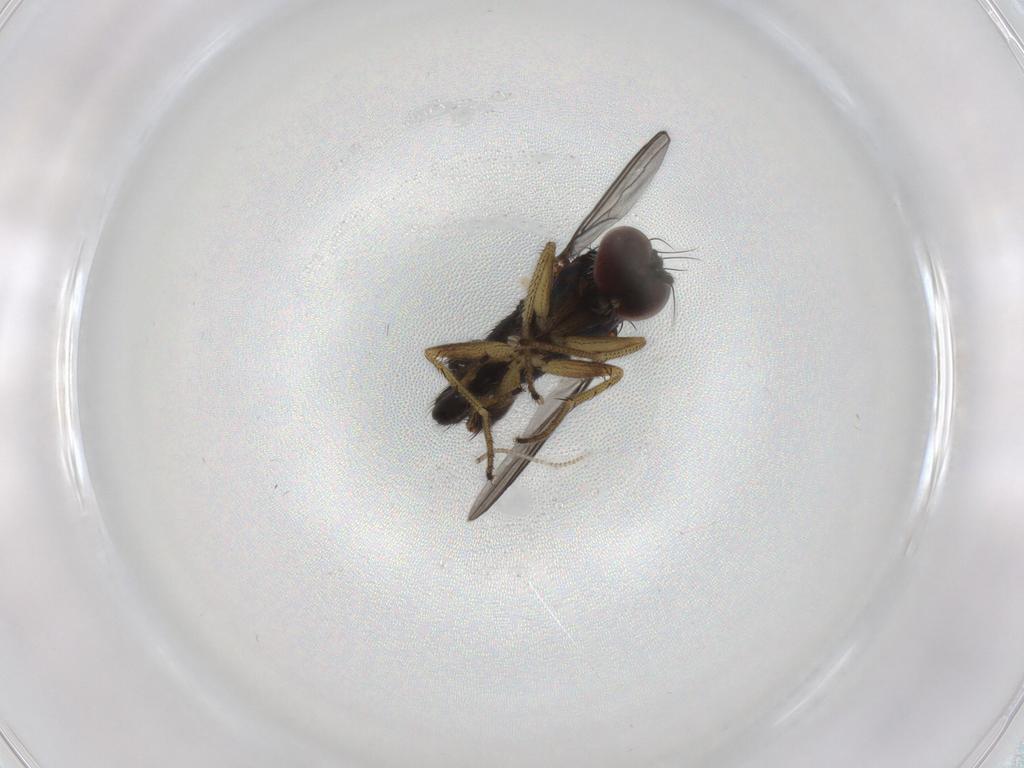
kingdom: Animalia
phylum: Arthropoda
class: Insecta
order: Diptera
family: Dolichopodidae
